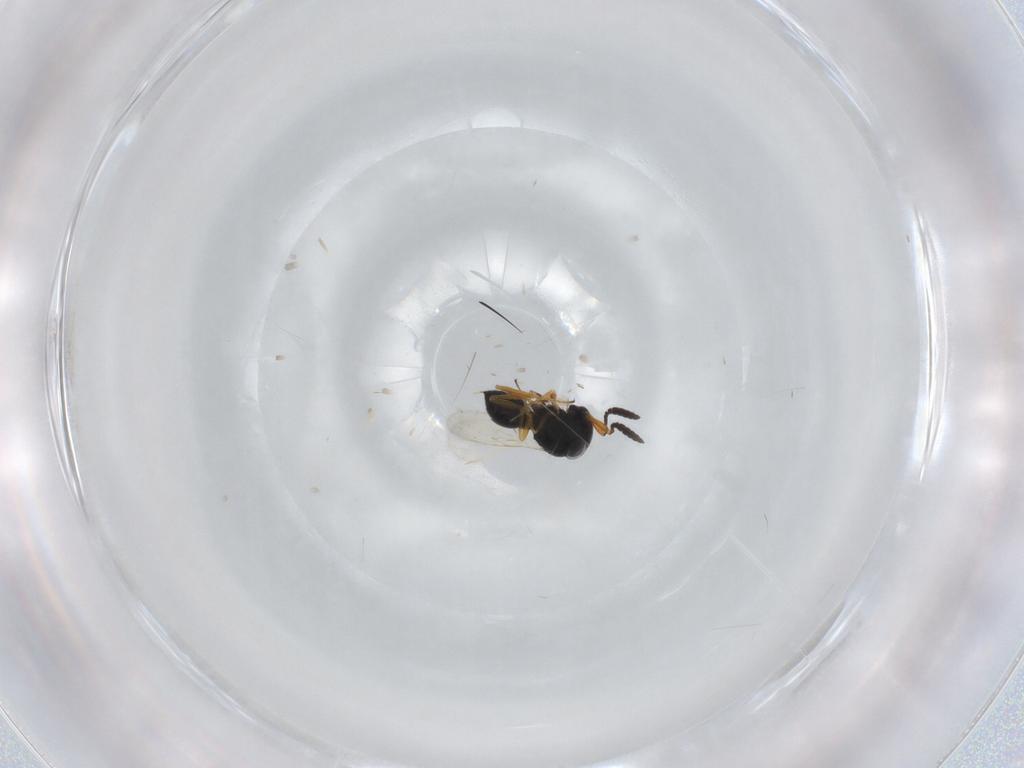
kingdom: Animalia
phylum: Arthropoda
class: Insecta
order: Hymenoptera
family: Scelionidae
